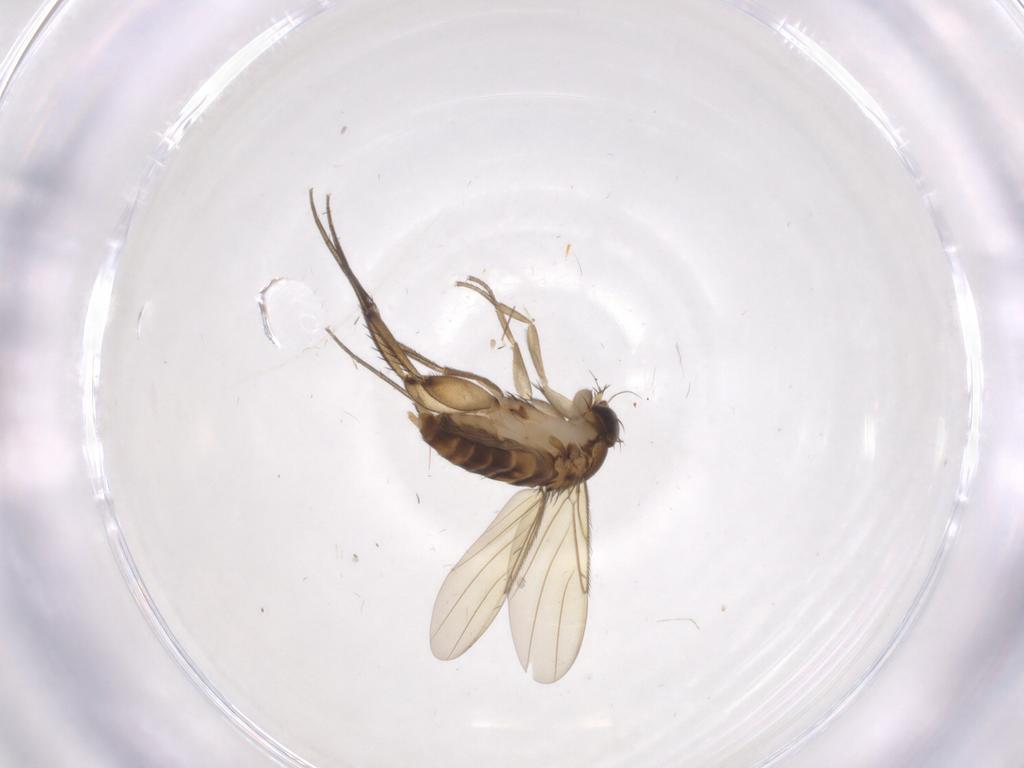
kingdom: Animalia
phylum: Arthropoda
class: Insecta
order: Diptera
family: Phoridae
